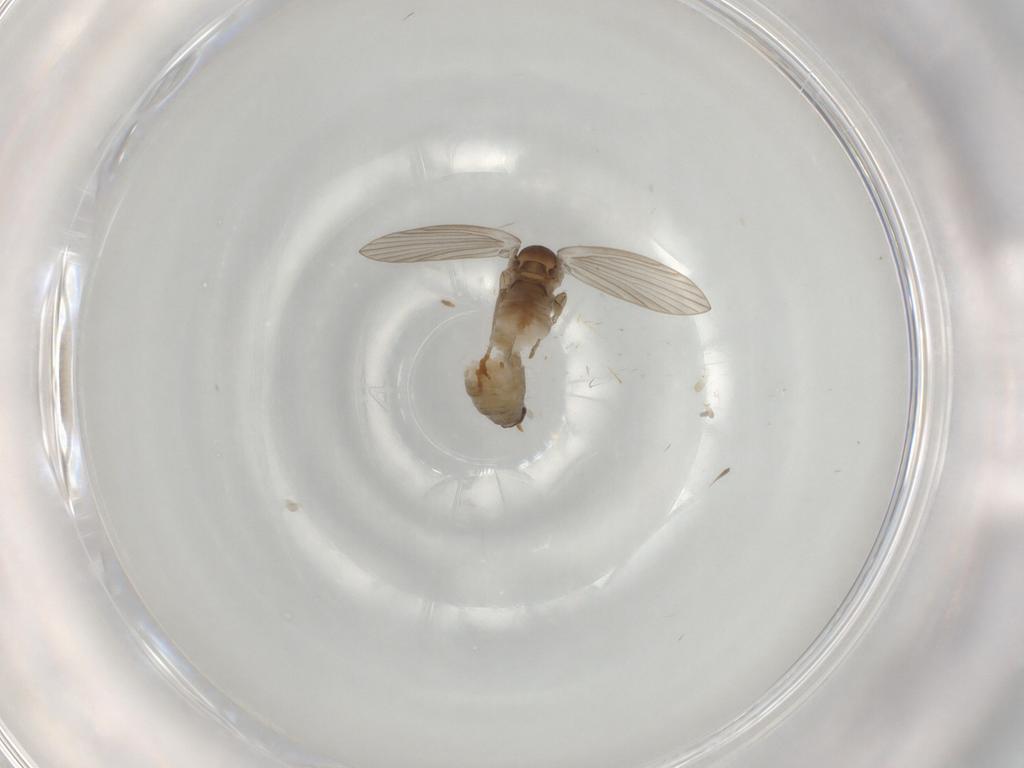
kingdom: Animalia
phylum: Arthropoda
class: Insecta
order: Diptera
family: Psychodidae
